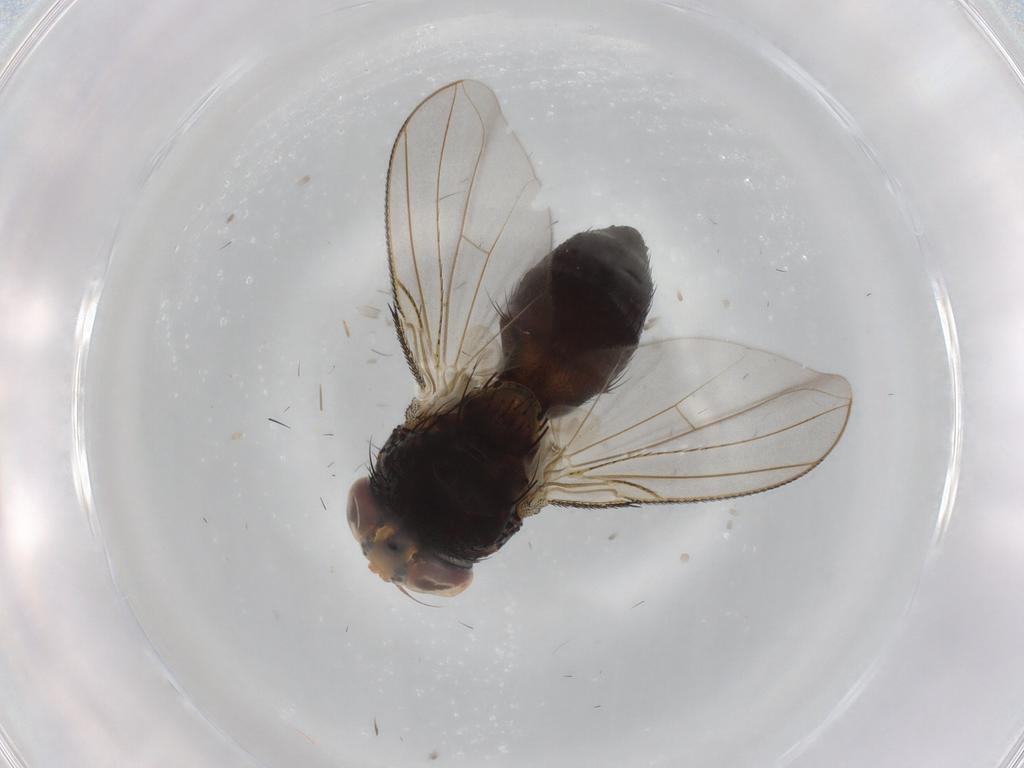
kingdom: Animalia
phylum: Arthropoda
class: Insecta
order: Diptera
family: Tachinidae
